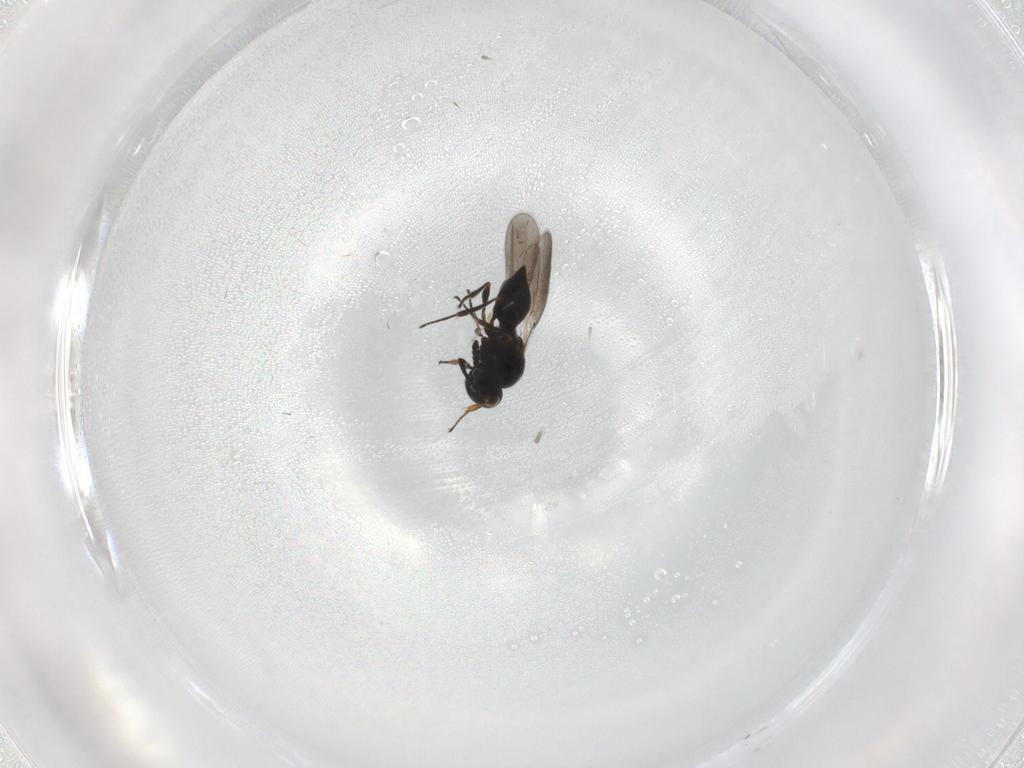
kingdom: Animalia
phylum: Arthropoda
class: Insecta
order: Hymenoptera
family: Platygastridae
